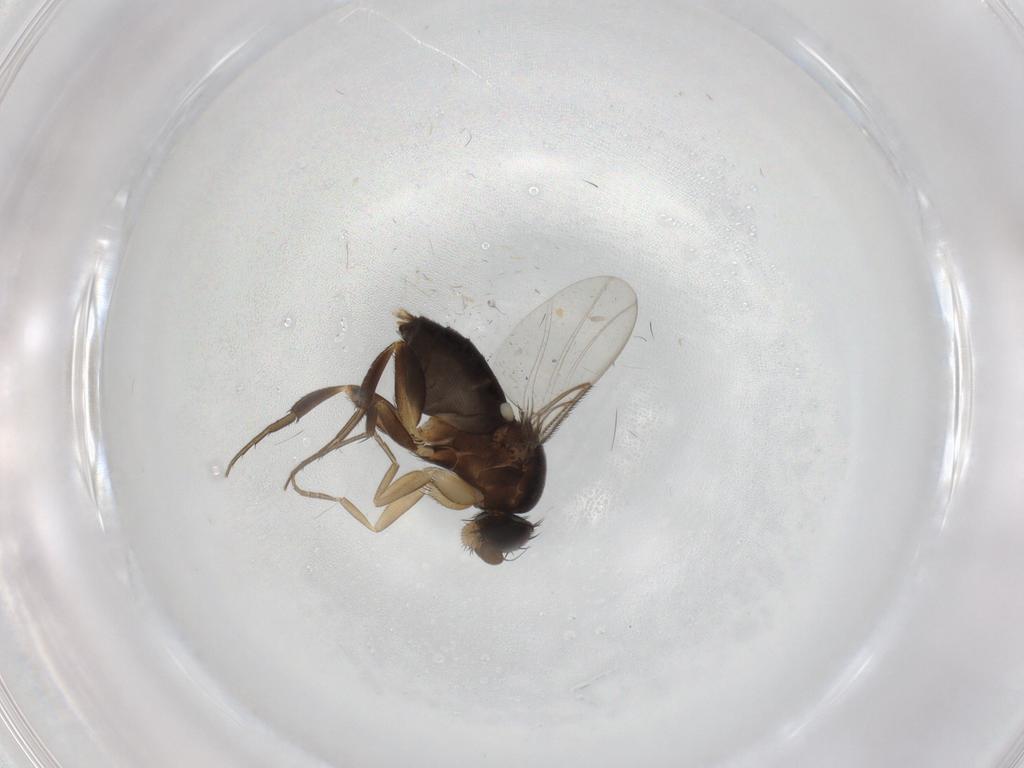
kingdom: Animalia
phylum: Arthropoda
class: Insecta
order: Diptera
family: Phoridae
